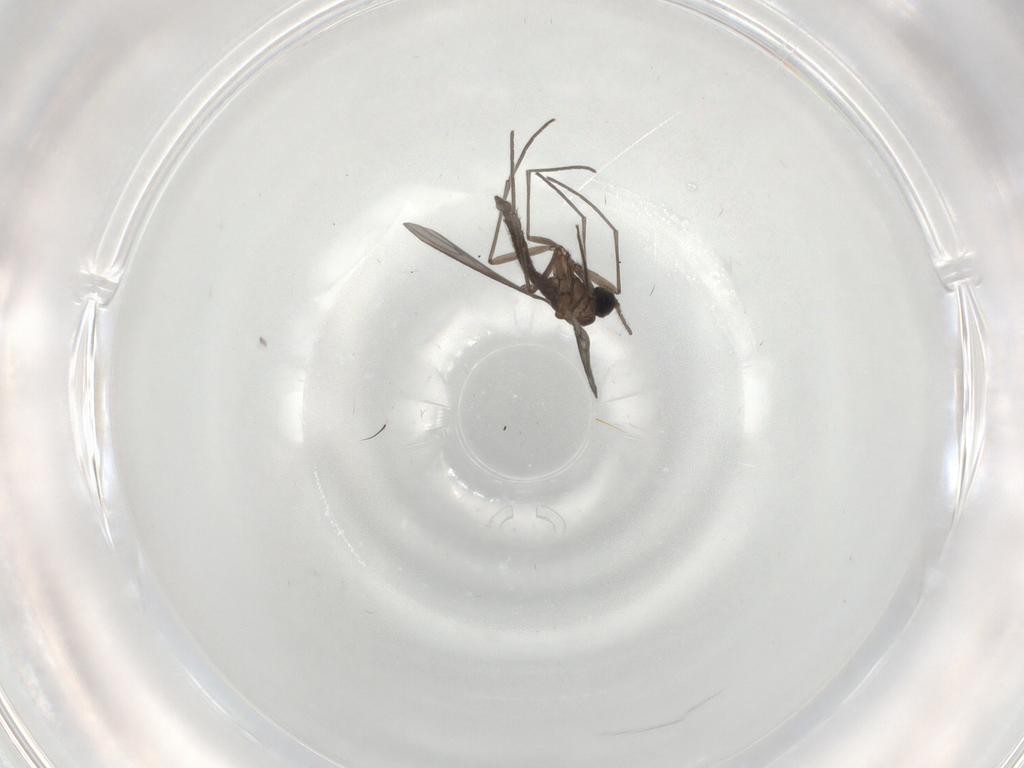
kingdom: Animalia
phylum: Arthropoda
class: Insecta
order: Diptera
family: Sciaridae
